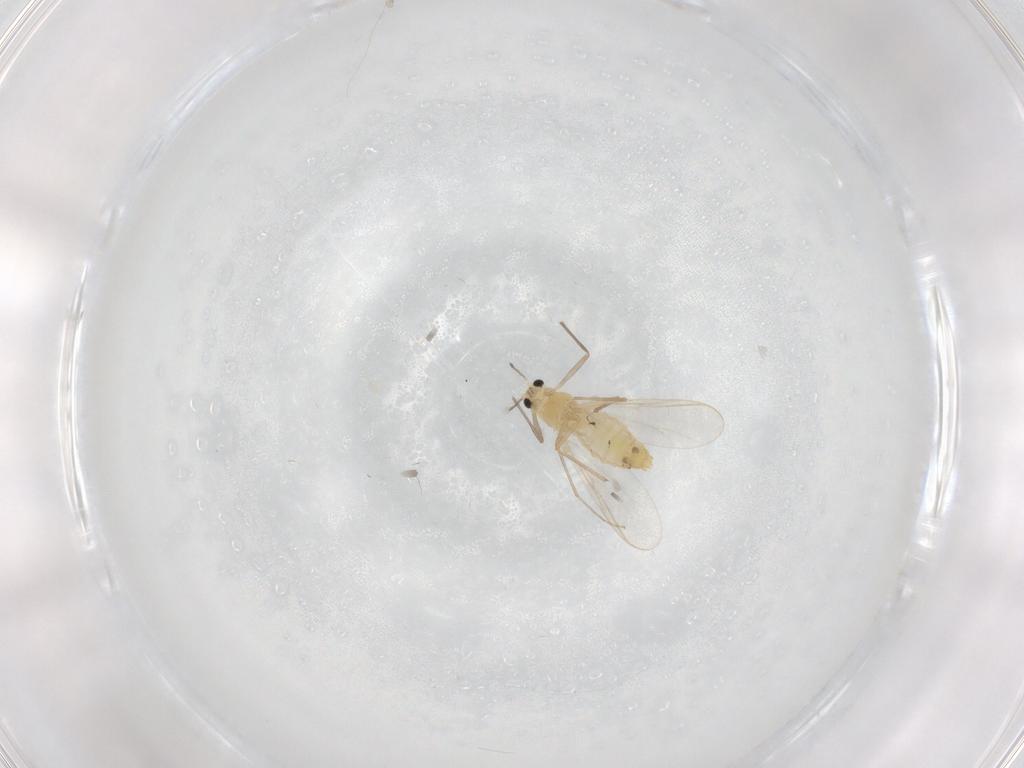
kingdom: Animalia
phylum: Arthropoda
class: Insecta
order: Diptera
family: Chironomidae
